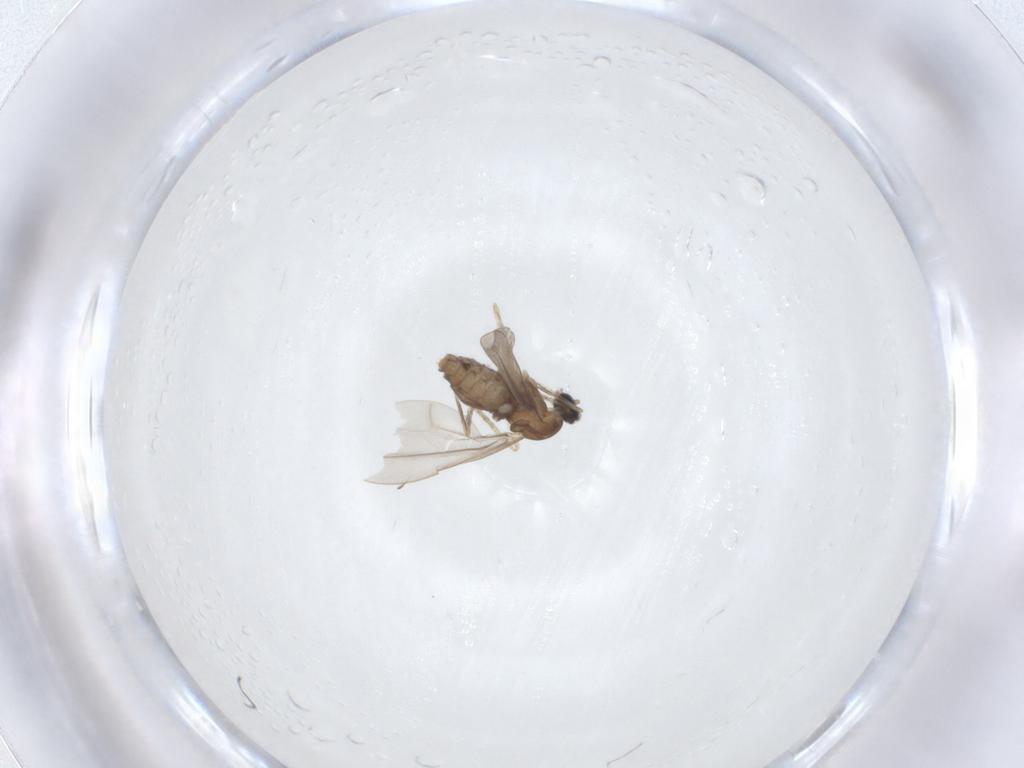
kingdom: Animalia
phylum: Arthropoda
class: Insecta
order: Diptera
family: Cecidomyiidae
